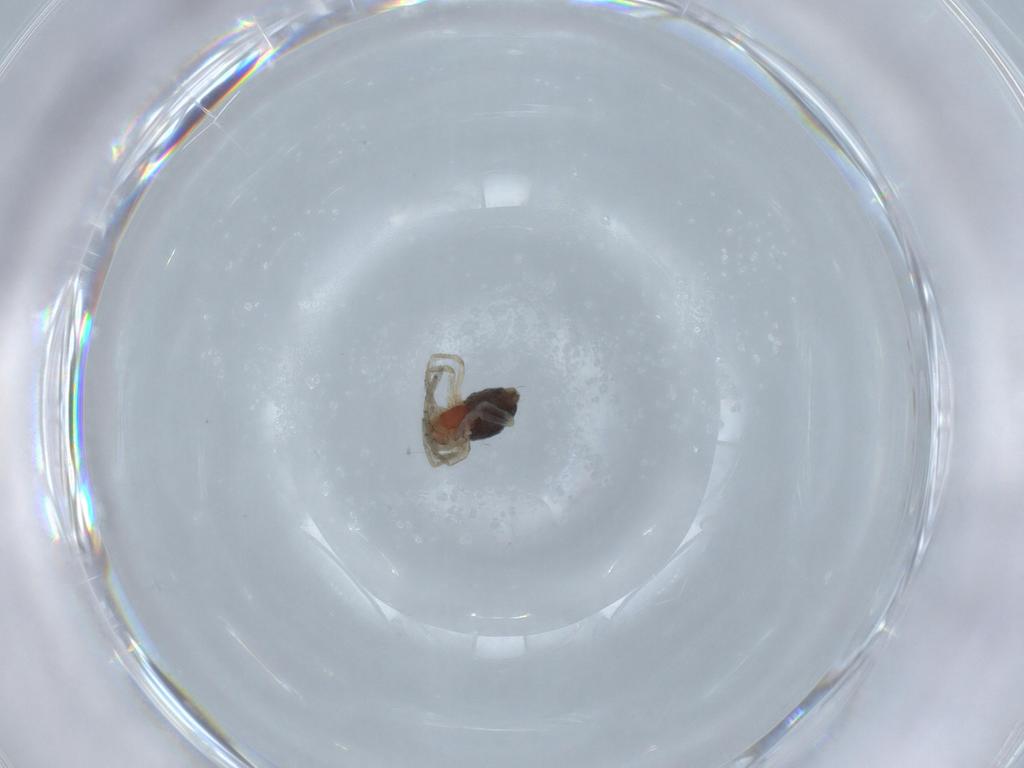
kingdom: Animalia
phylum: Arthropoda
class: Arachnida
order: Araneae
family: Dictynidae
